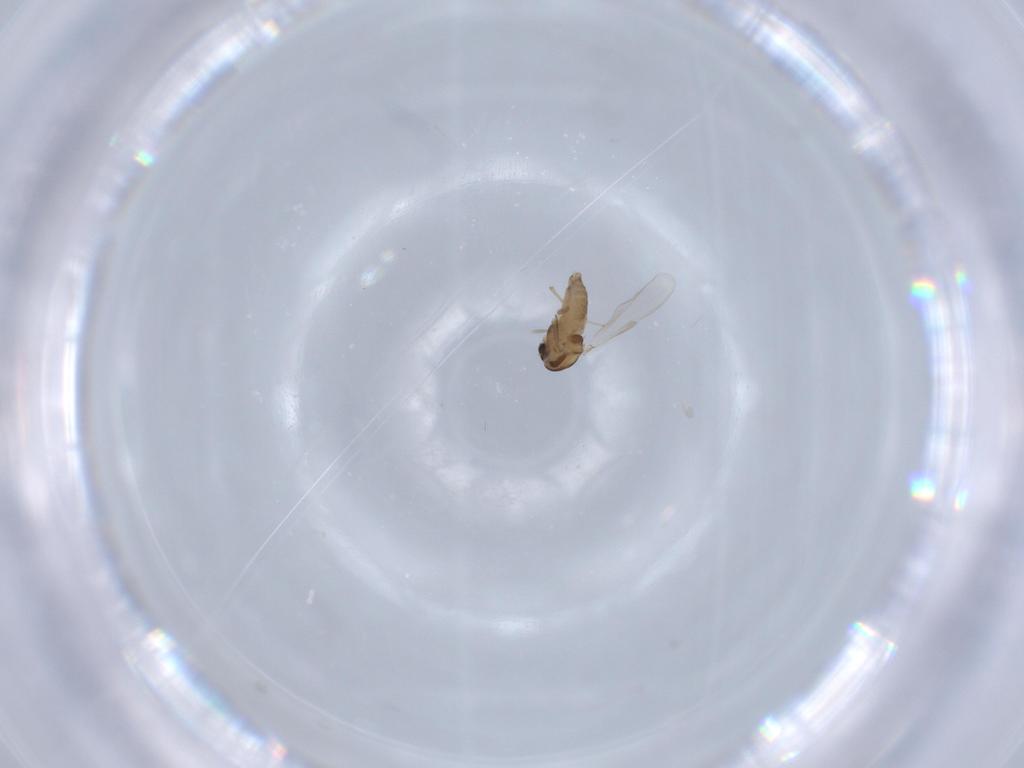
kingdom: Animalia
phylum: Arthropoda
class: Insecta
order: Diptera
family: Chironomidae
